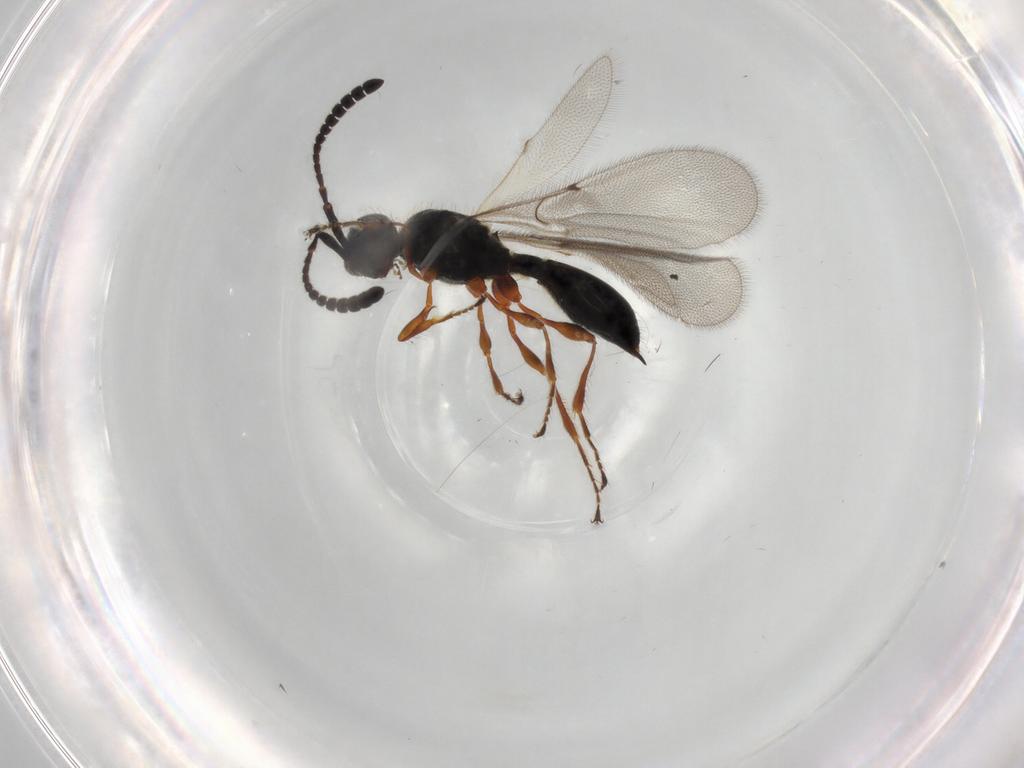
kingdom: Animalia
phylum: Arthropoda
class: Insecta
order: Hymenoptera
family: Diapriidae
